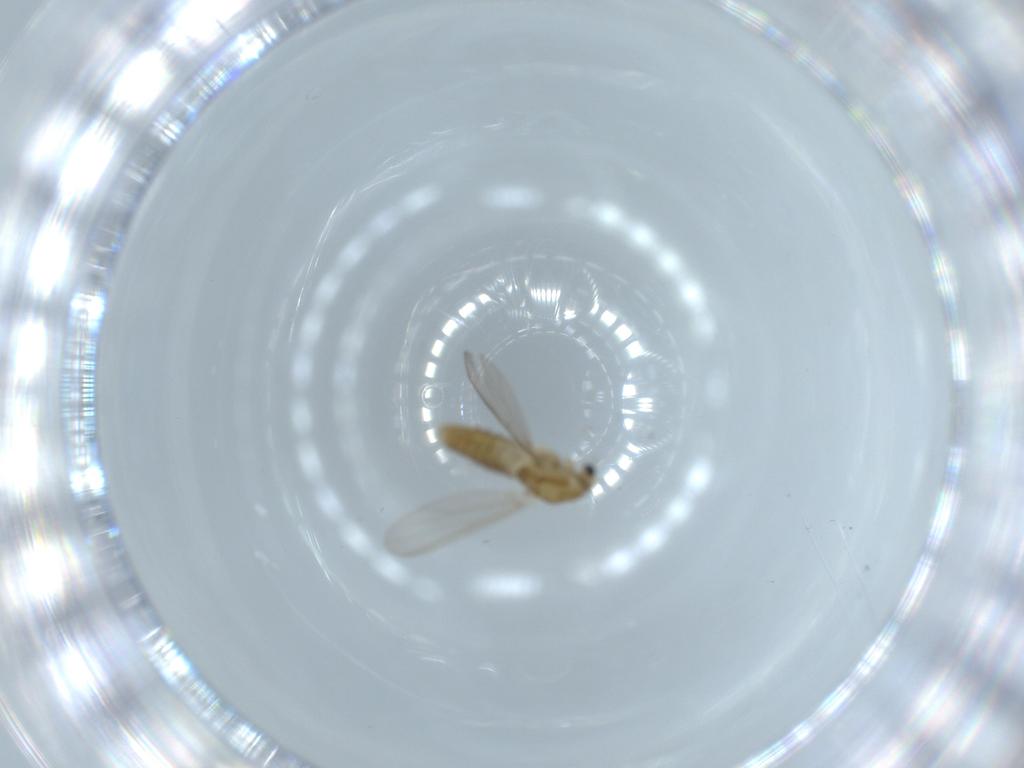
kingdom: Animalia
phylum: Arthropoda
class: Insecta
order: Diptera
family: Chironomidae
